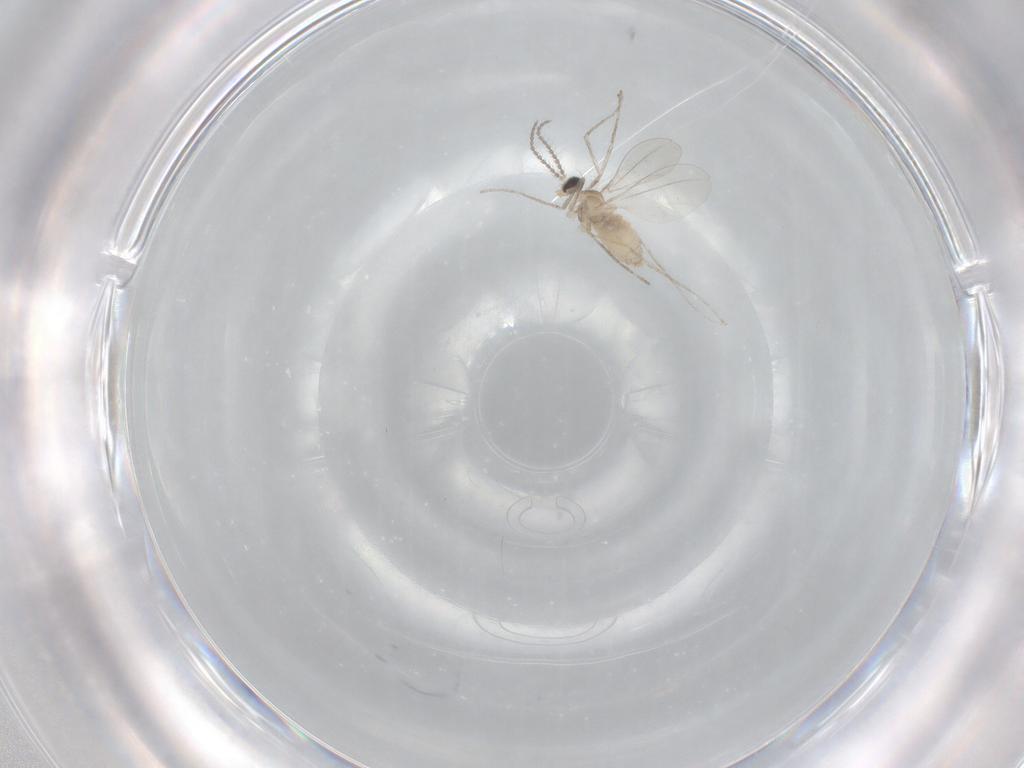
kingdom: Animalia
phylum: Arthropoda
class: Insecta
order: Diptera
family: Cecidomyiidae
